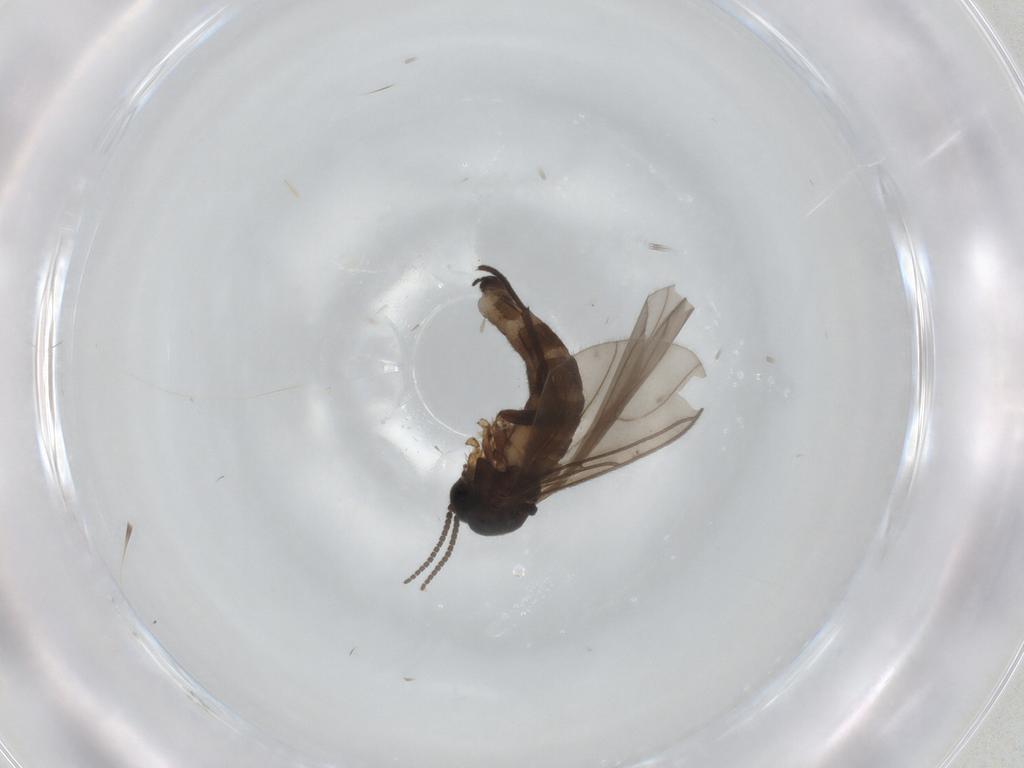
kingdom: Animalia
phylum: Arthropoda
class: Insecta
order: Diptera
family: Sciaridae
